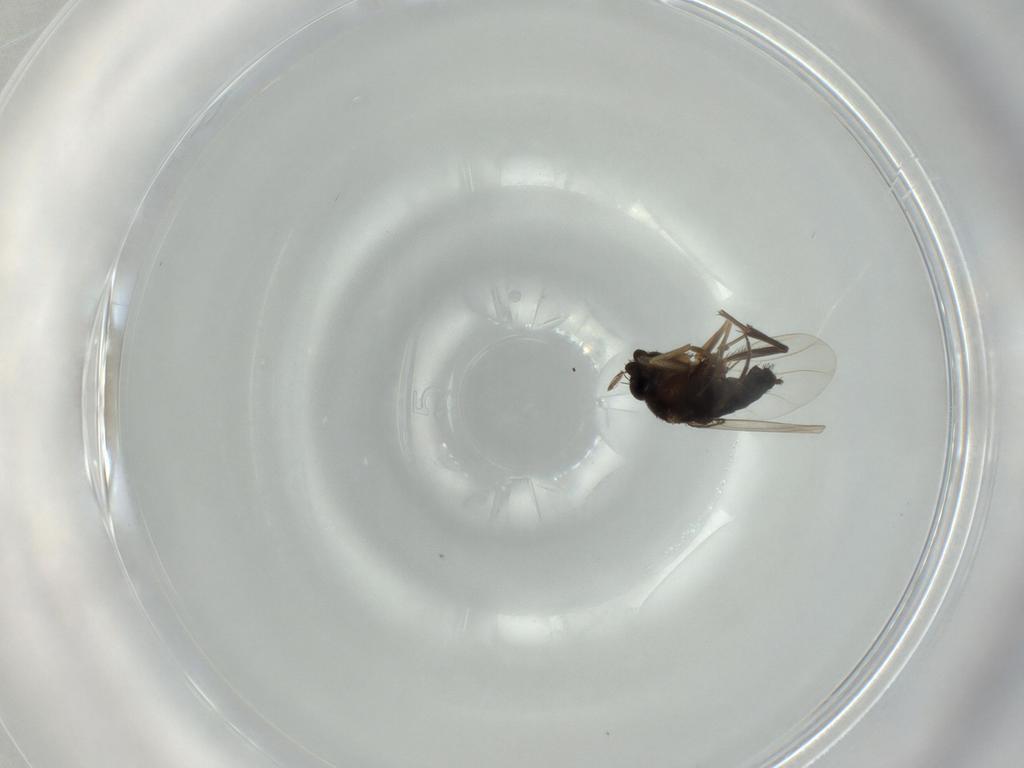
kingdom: Animalia
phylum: Arthropoda
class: Insecta
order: Diptera
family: Phoridae
